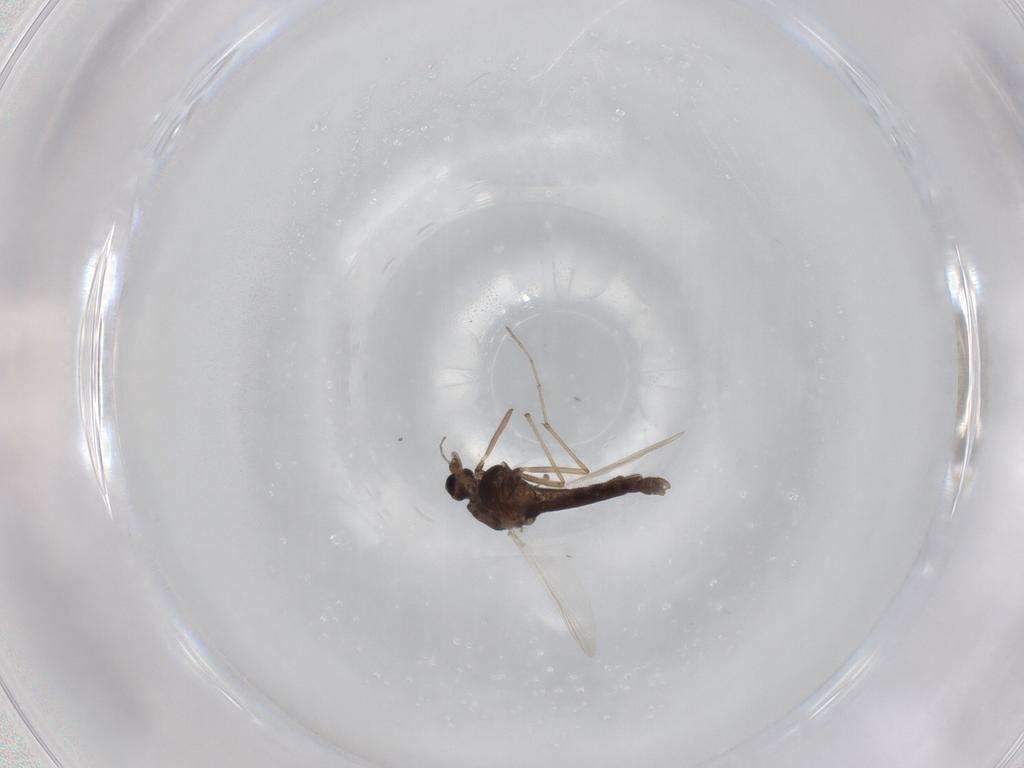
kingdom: Animalia
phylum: Arthropoda
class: Insecta
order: Diptera
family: Chironomidae
